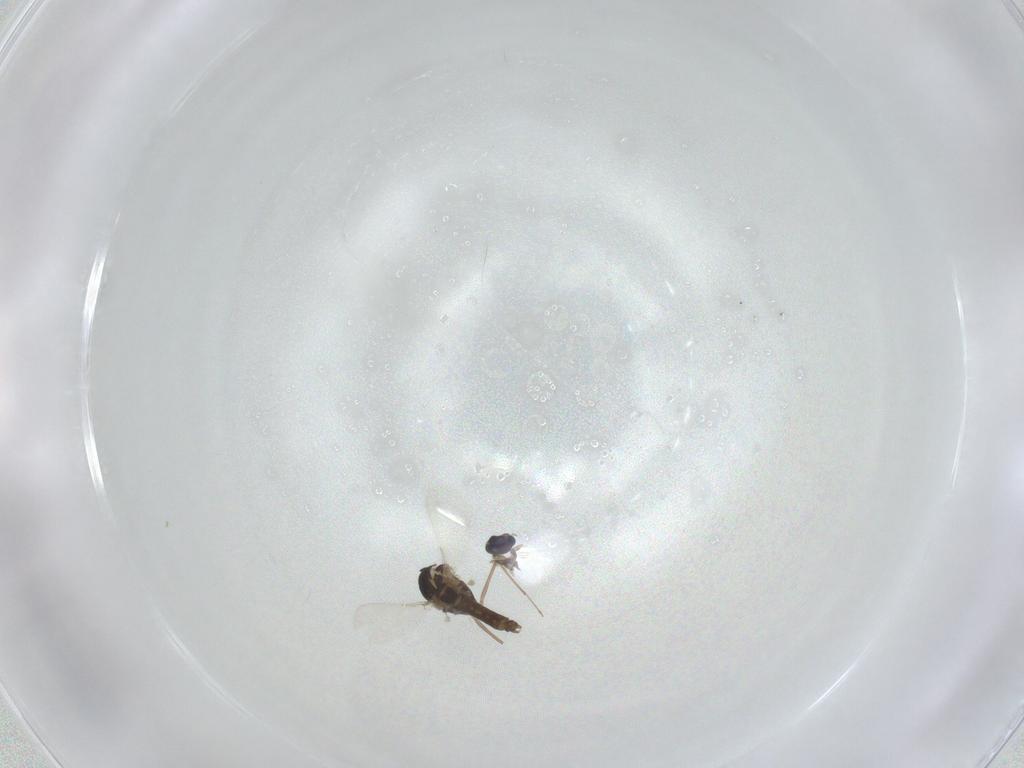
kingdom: Animalia
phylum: Arthropoda
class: Insecta
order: Diptera
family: Chironomidae
